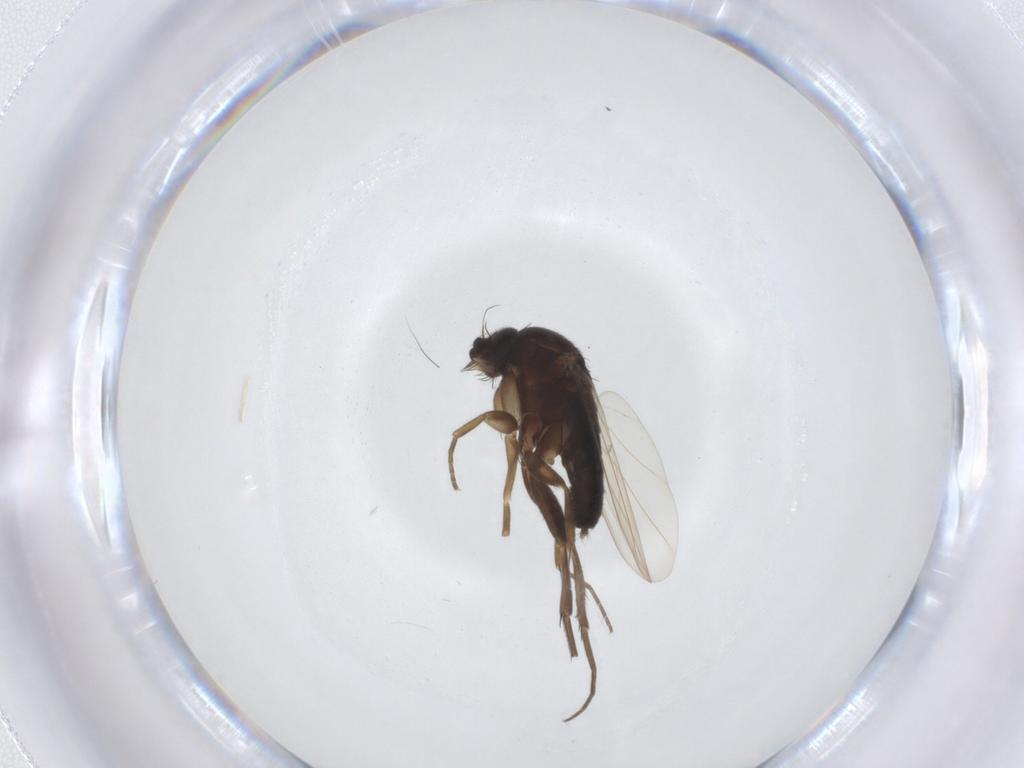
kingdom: Animalia
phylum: Arthropoda
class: Insecta
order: Diptera
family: Phoridae
